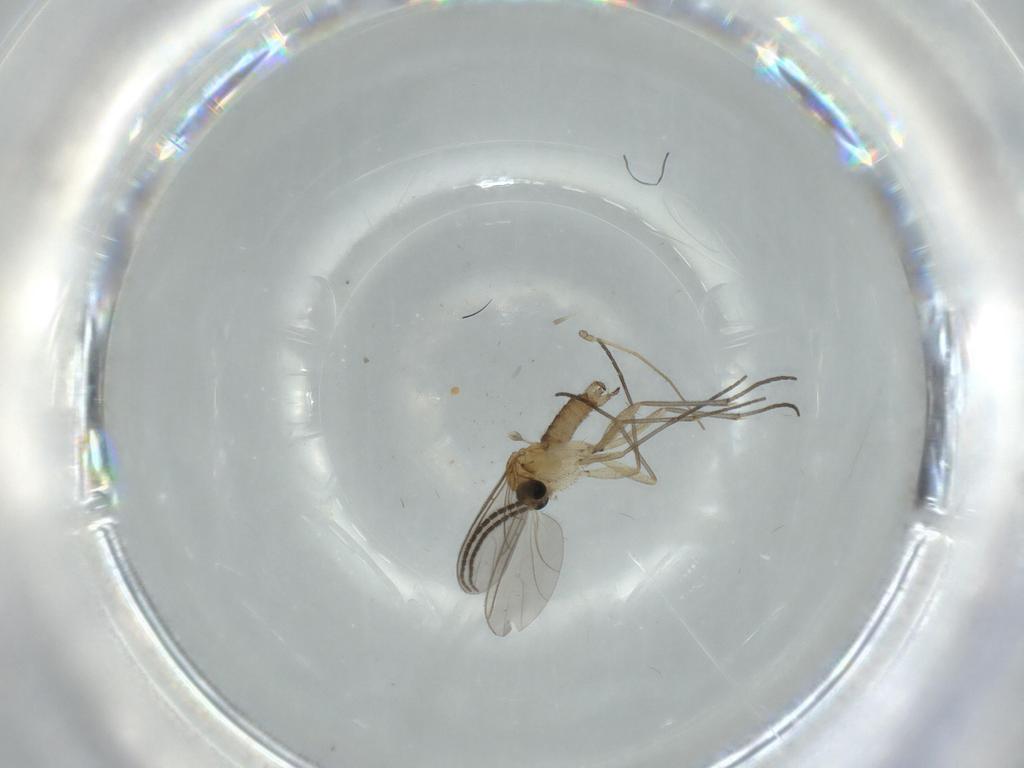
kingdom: Animalia
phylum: Arthropoda
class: Insecta
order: Diptera
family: Sciaridae
